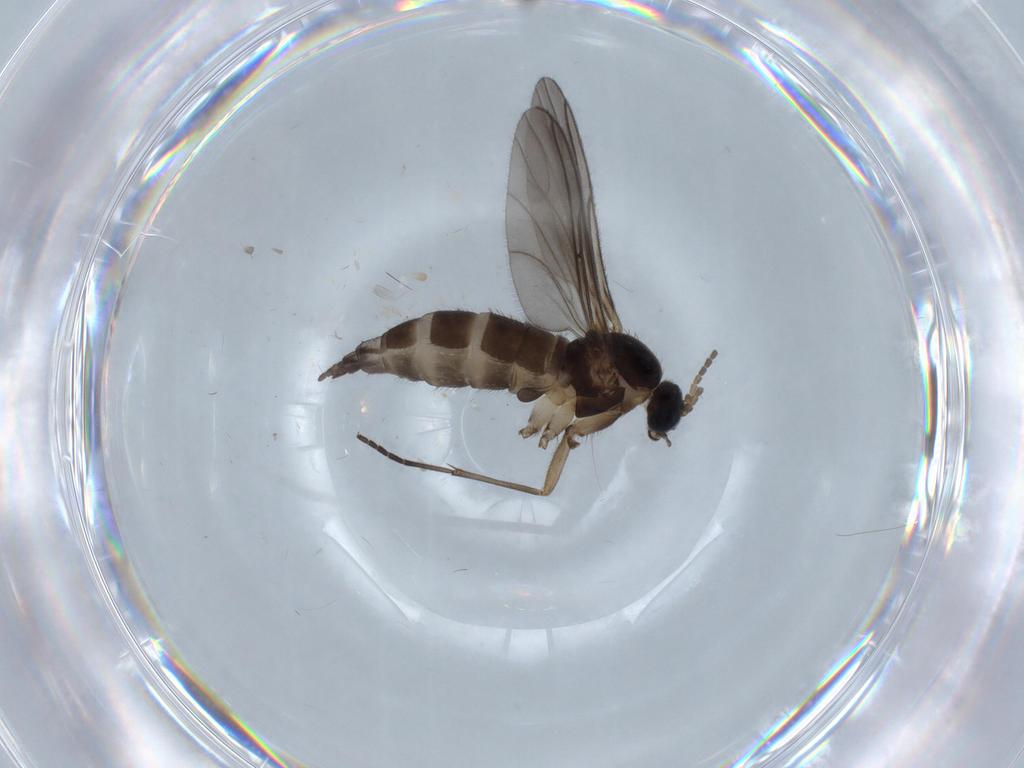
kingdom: Animalia
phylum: Arthropoda
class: Insecta
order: Diptera
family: Sciaridae
